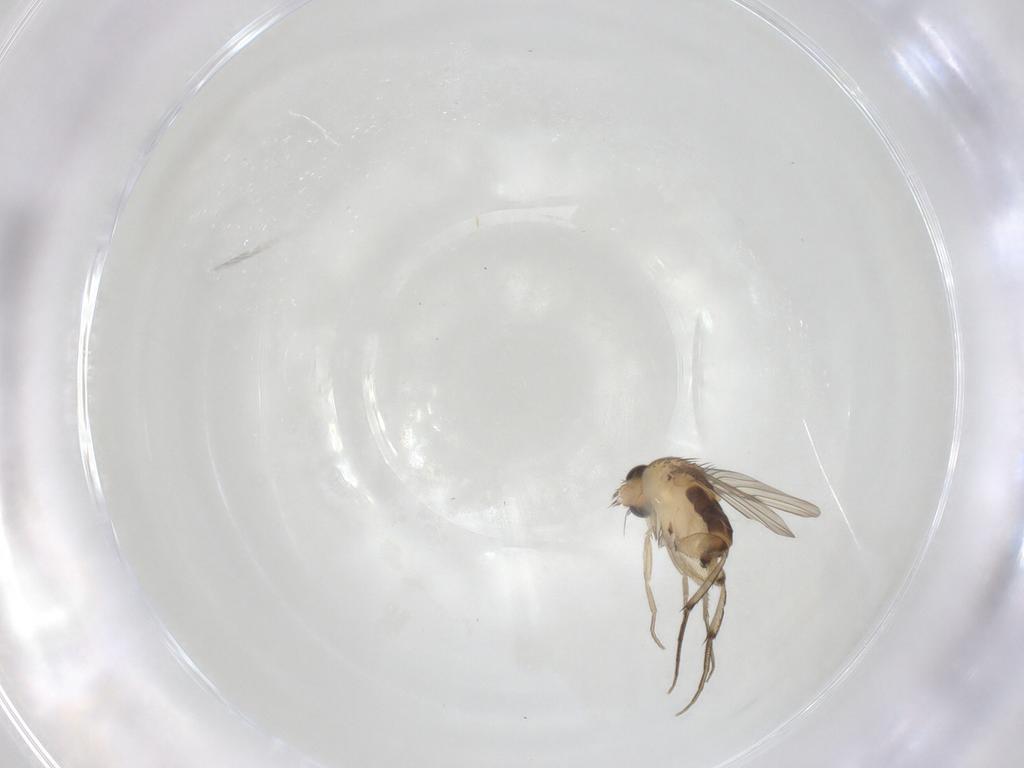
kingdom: Animalia
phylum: Arthropoda
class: Insecta
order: Diptera
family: Phoridae
